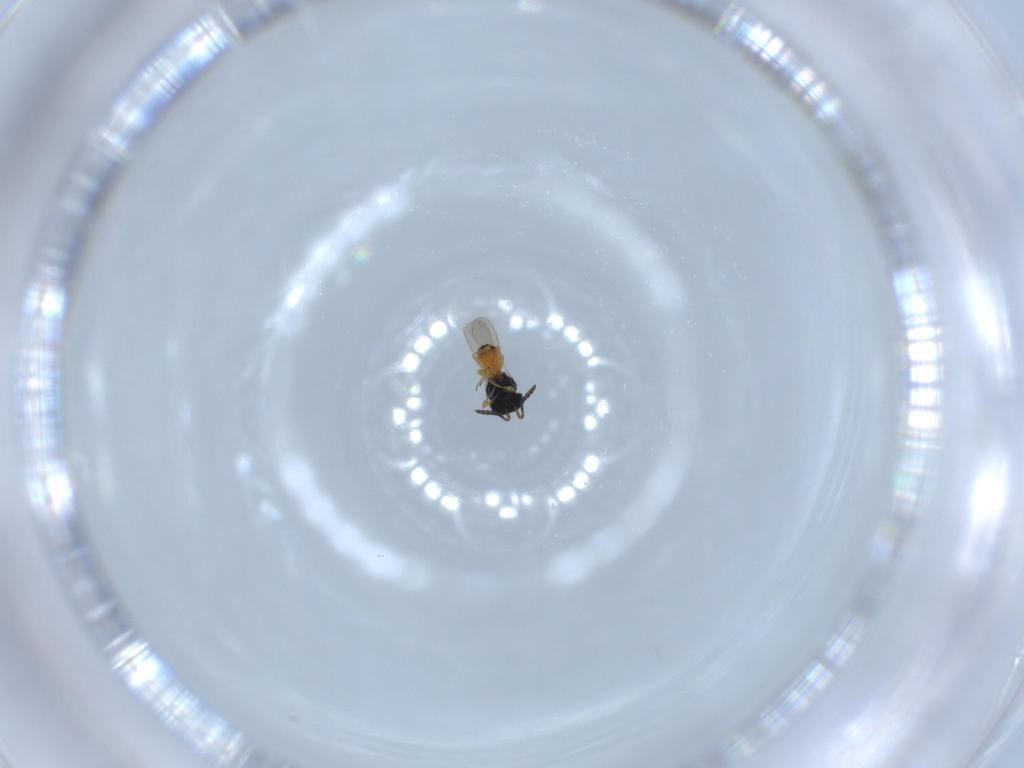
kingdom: Animalia
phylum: Arthropoda
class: Insecta
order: Hymenoptera
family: Scelionidae
